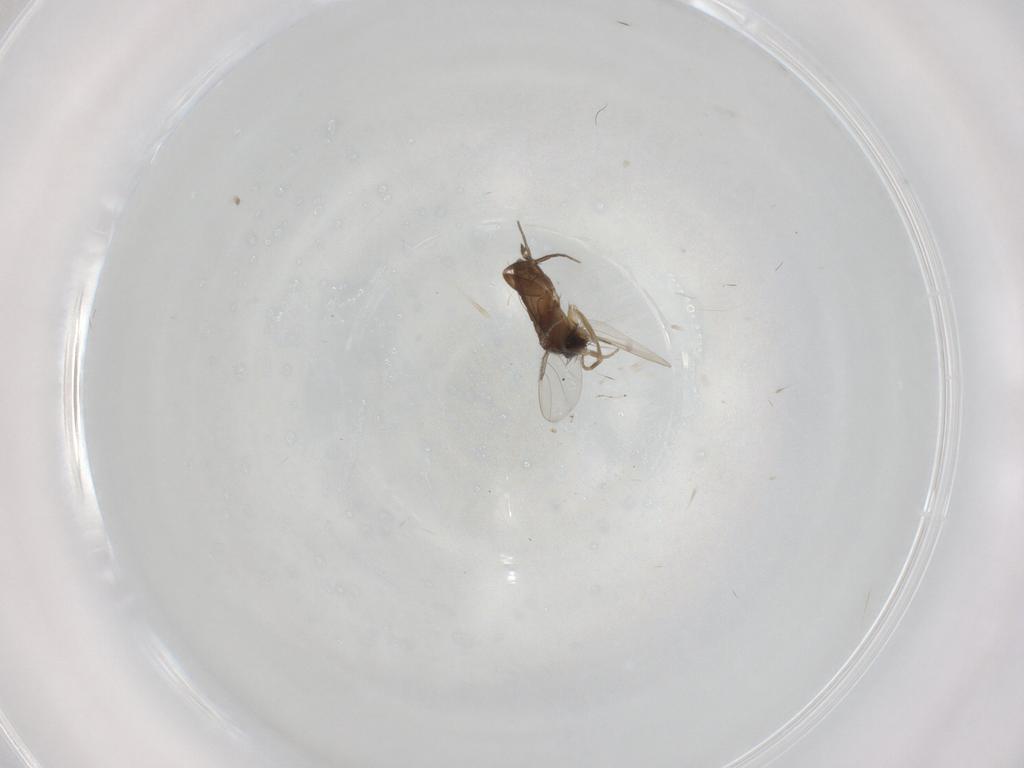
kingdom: Animalia
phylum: Arthropoda
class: Insecta
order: Diptera
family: Phoridae
